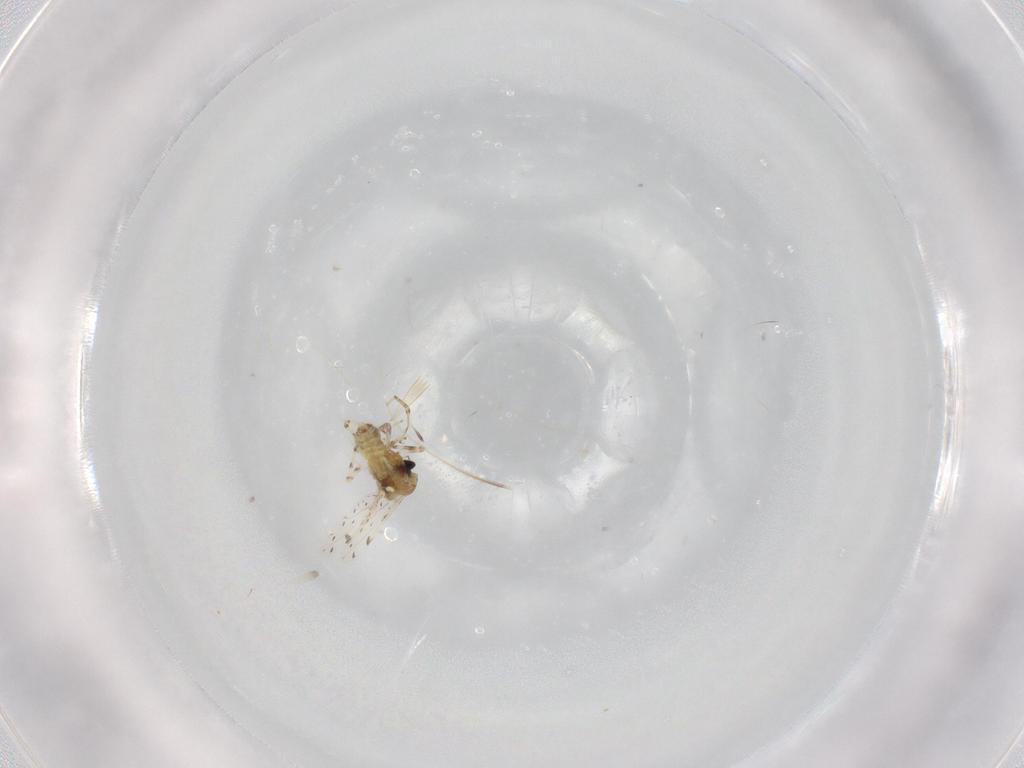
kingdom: Animalia
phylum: Arthropoda
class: Insecta
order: Diptera
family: Ceratopogonidae
